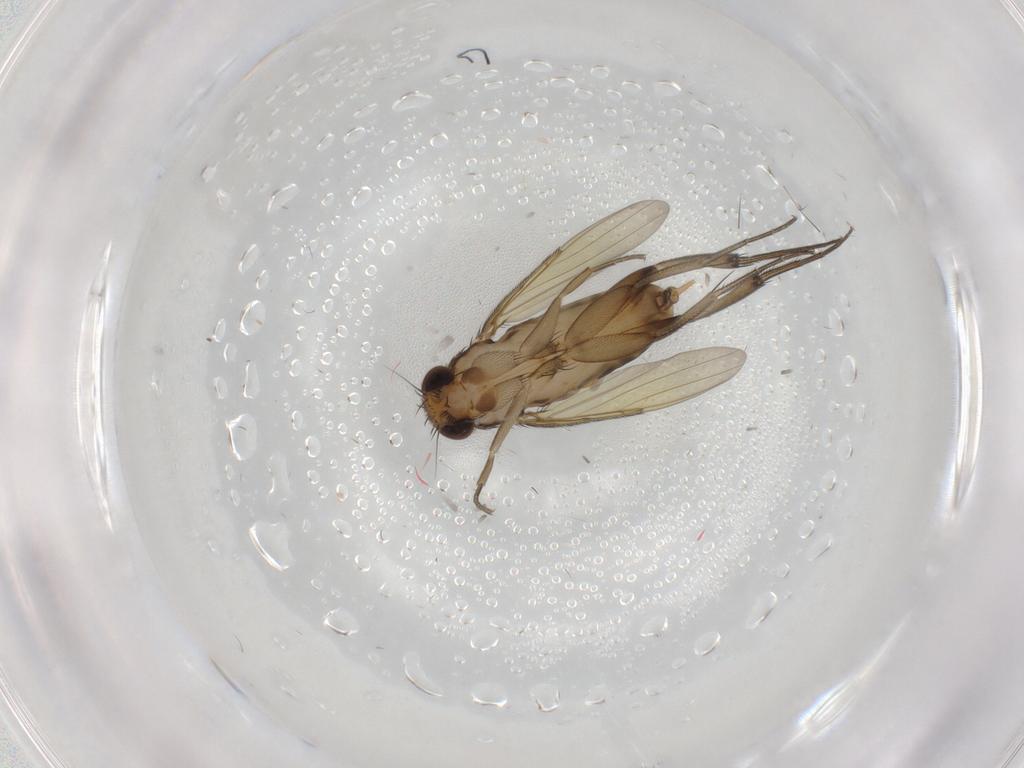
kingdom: Animalia
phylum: Arthropoda
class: Insecta
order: Diptera
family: Phoridae
